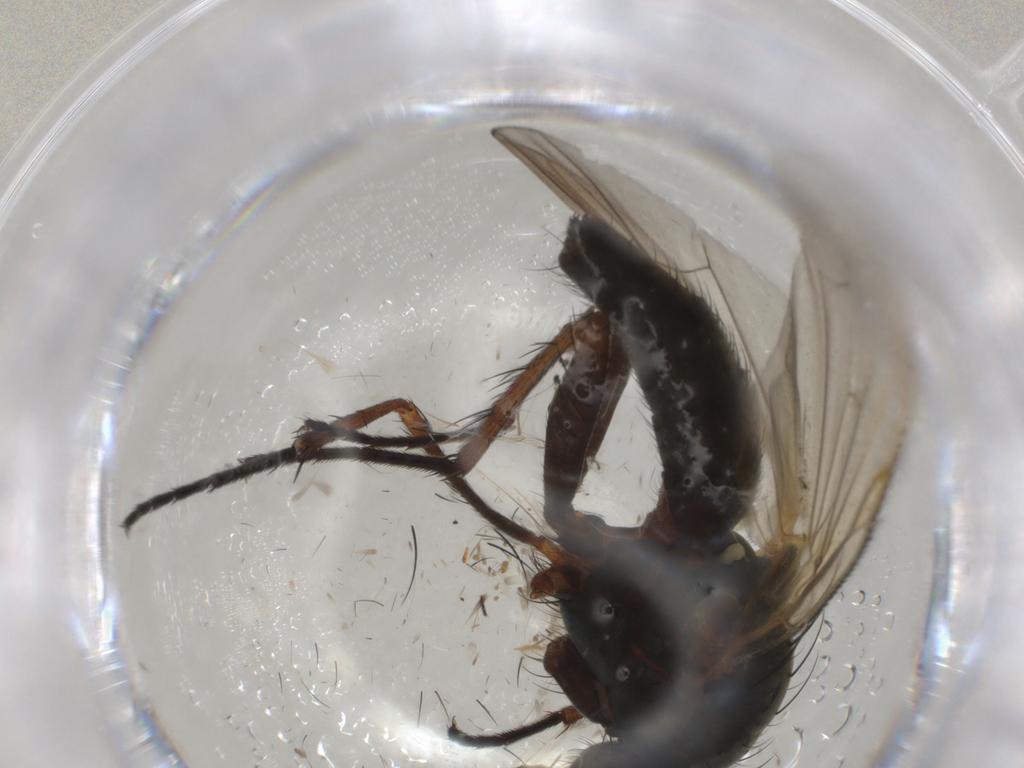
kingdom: Animalia
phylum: Arthropoda
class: Insecta
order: Diptera
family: Anthomyiidae
